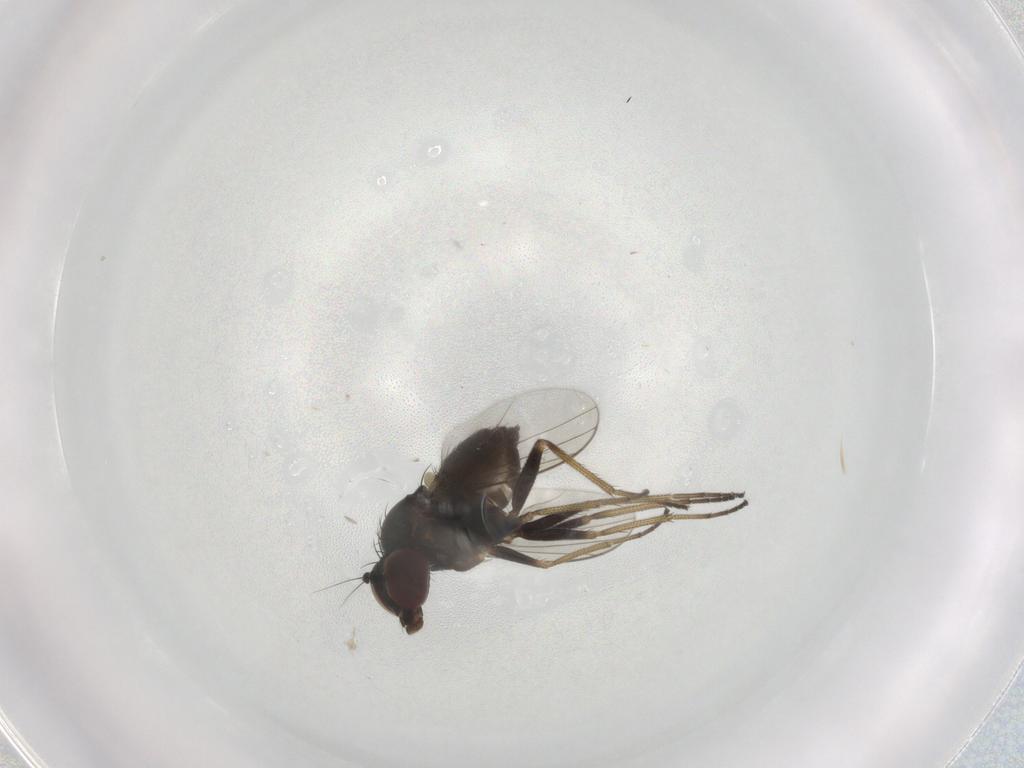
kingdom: Animalia
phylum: Arthropoda
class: Insecta
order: Diptera
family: Dolichopodidae
